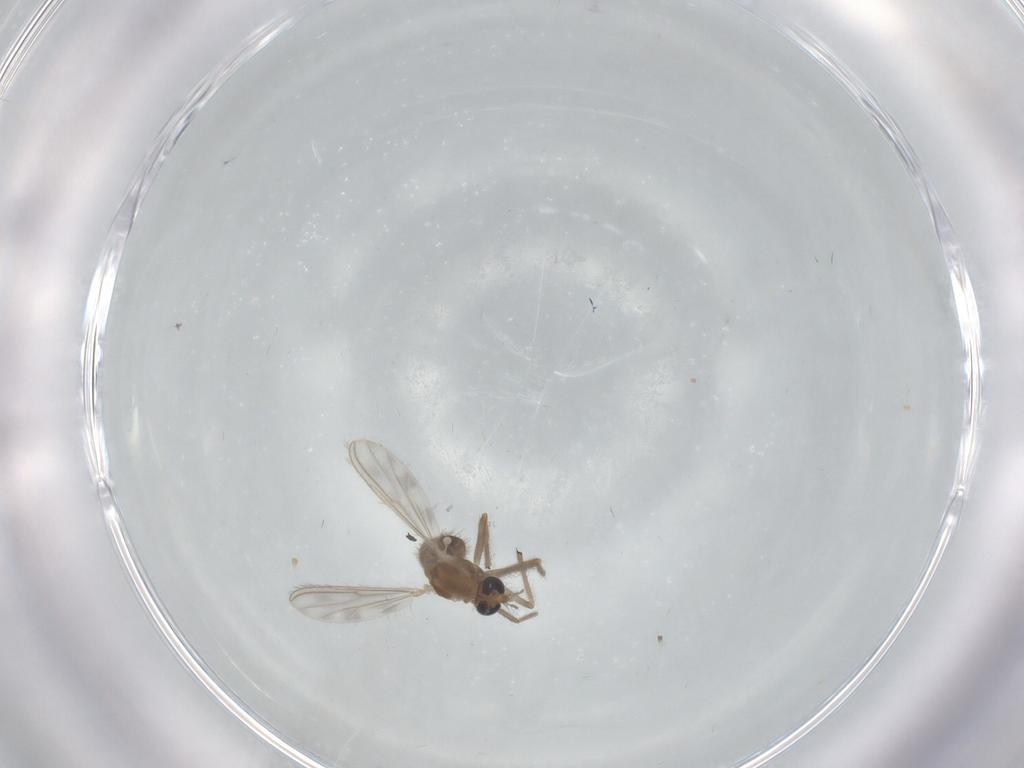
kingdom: Animalia
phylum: Arthropoda
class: Insecta
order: Diptera
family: Chironomidae
